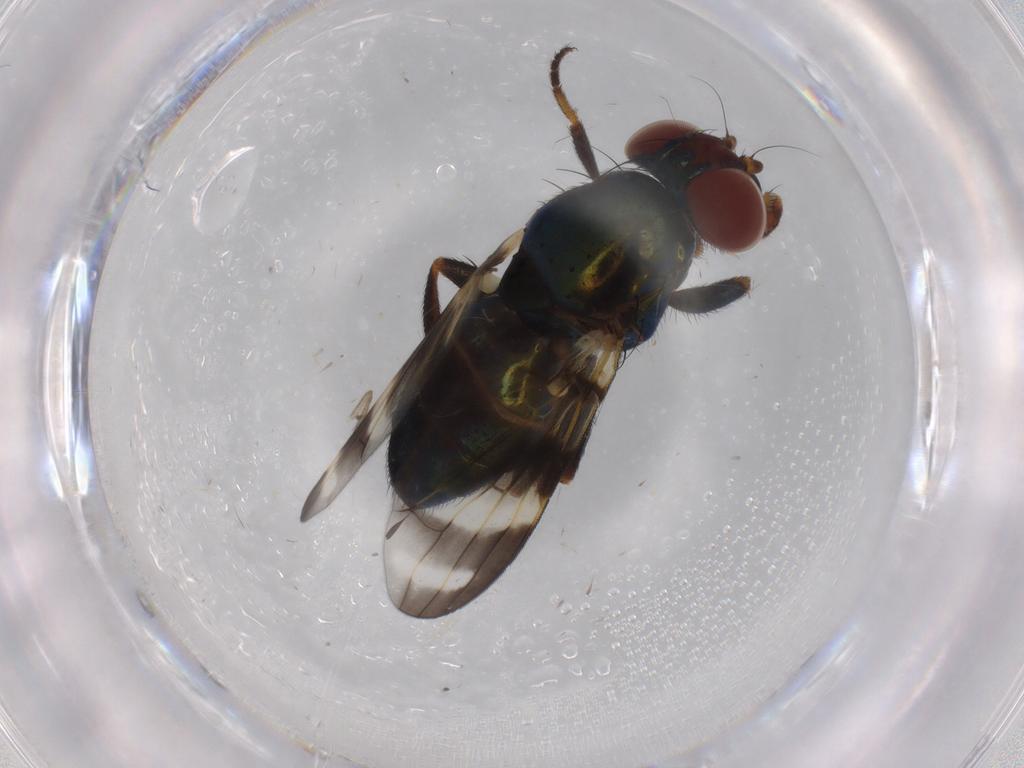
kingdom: Animalia
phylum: Arthropoda
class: Insecta
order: Diptera
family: Ulidiidae
